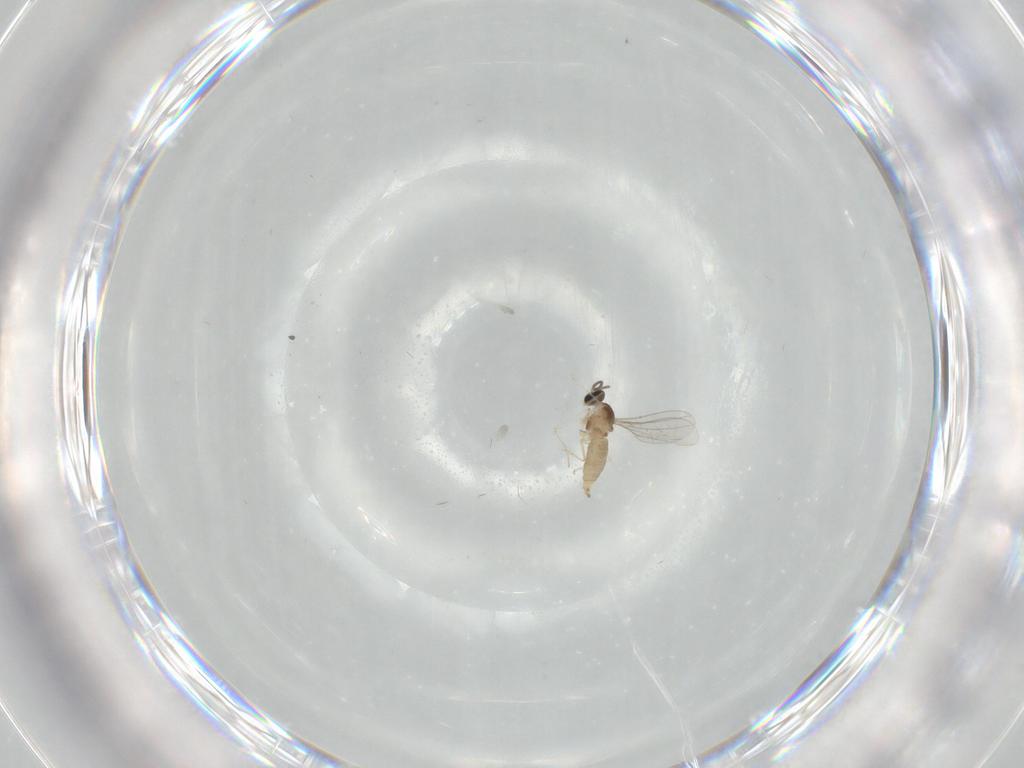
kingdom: Animalia
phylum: Arthropoda
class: Insecta
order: Diptera
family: Cecidomyiidae
